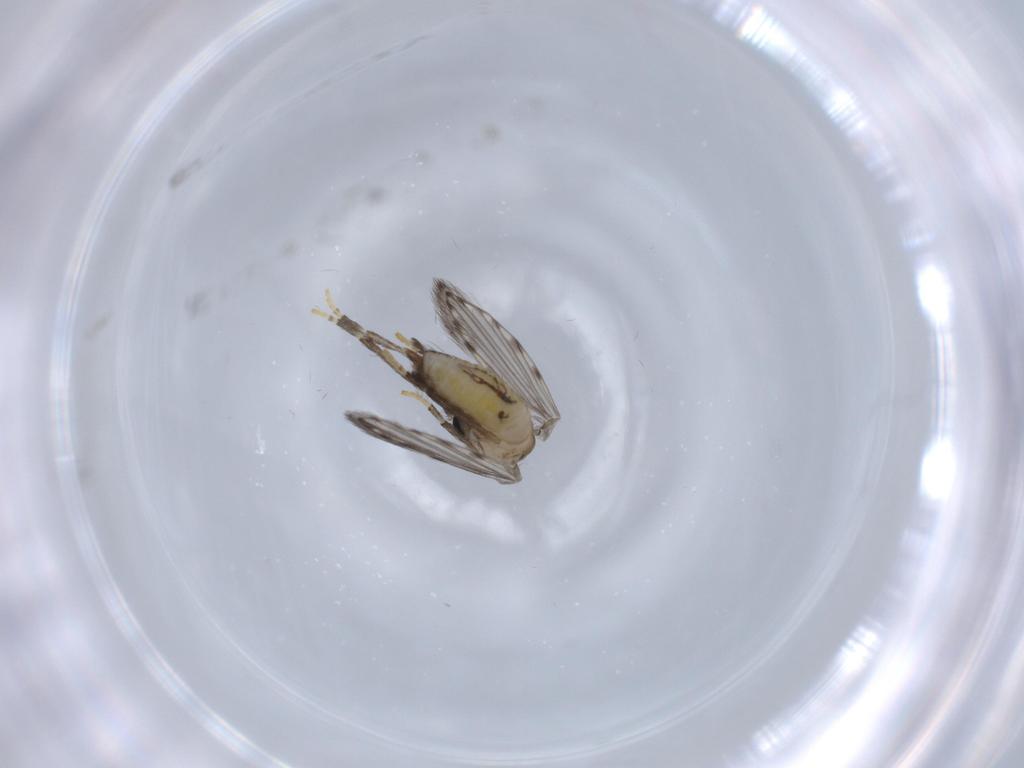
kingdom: Animalia
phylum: Arthropoda
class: Insecta
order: Diptera
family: Psychodidae
